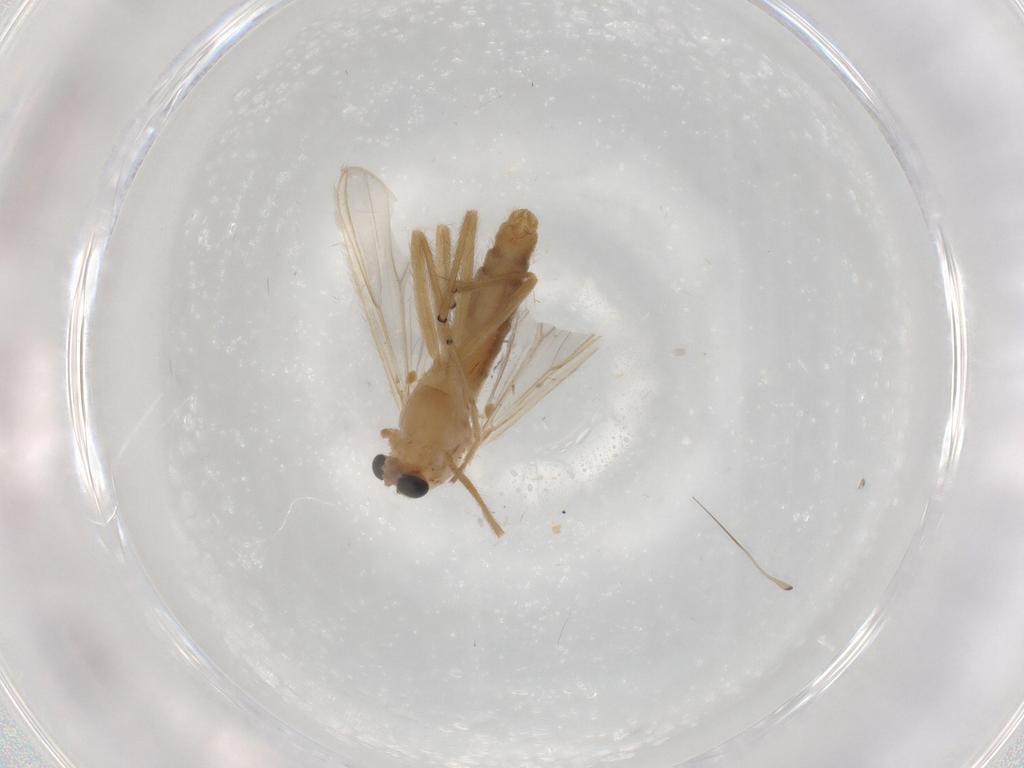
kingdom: Animalia
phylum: Arthropoda
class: Insecta
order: Diptera
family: Chironomidae
